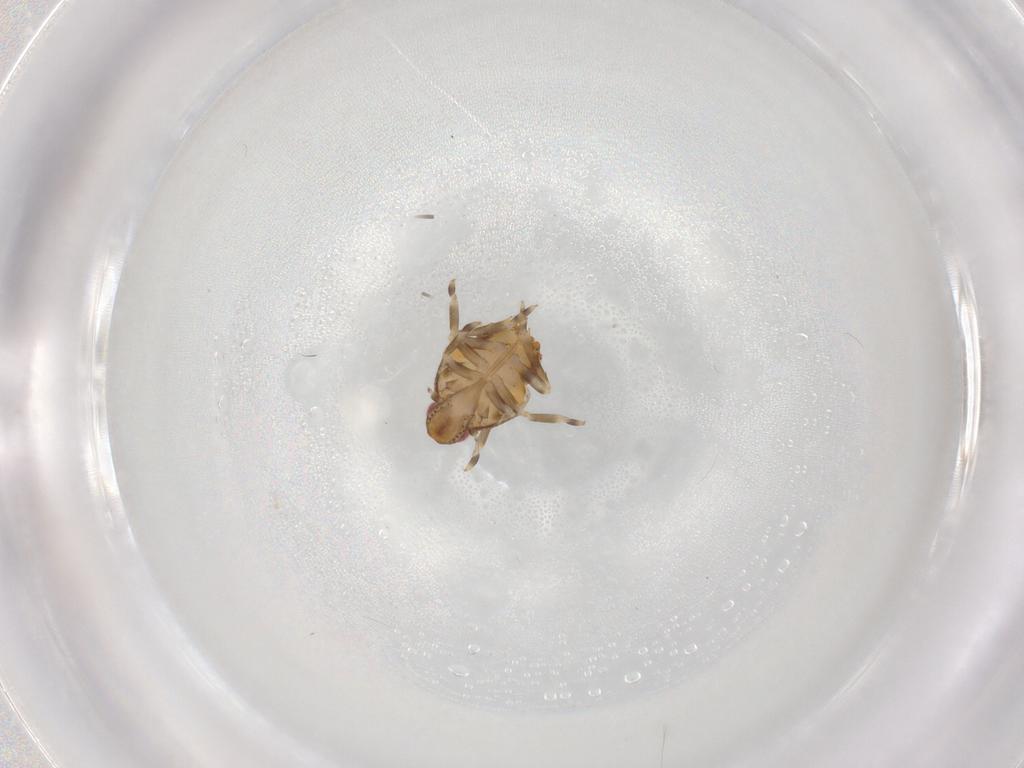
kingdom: Animalia
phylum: Arthropoda
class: Insecta
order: Hemiptera
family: Flatidae
